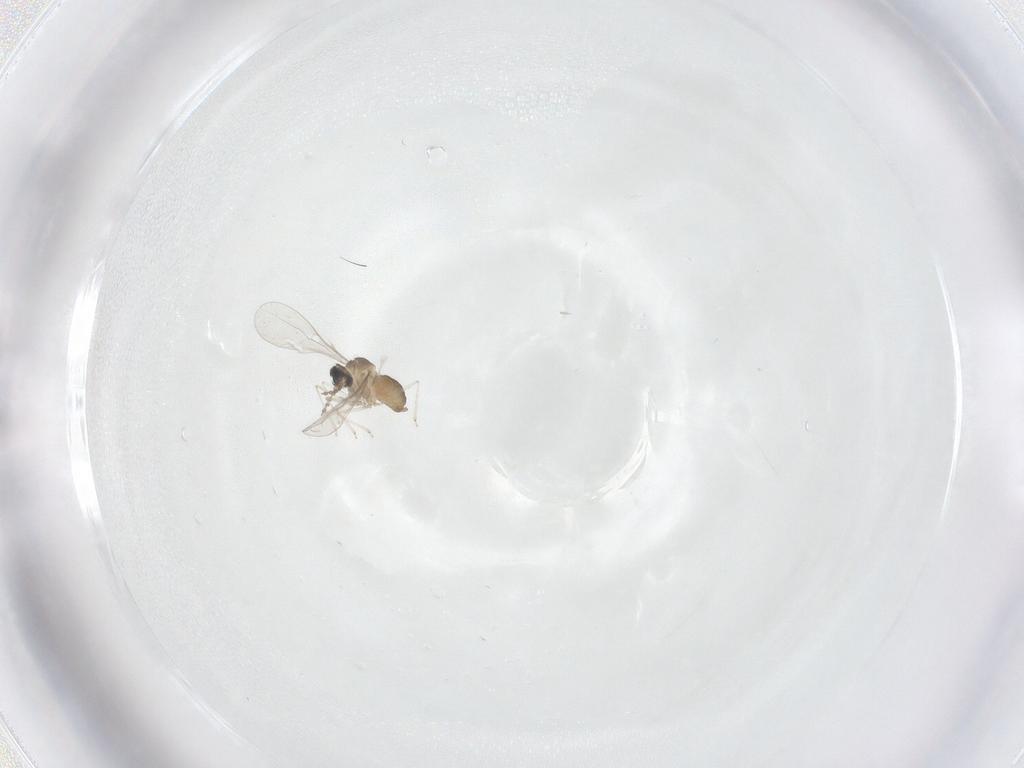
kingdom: Animalia
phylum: Arthropoda
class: Insecta
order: Diptera
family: Cecidomyiidae
